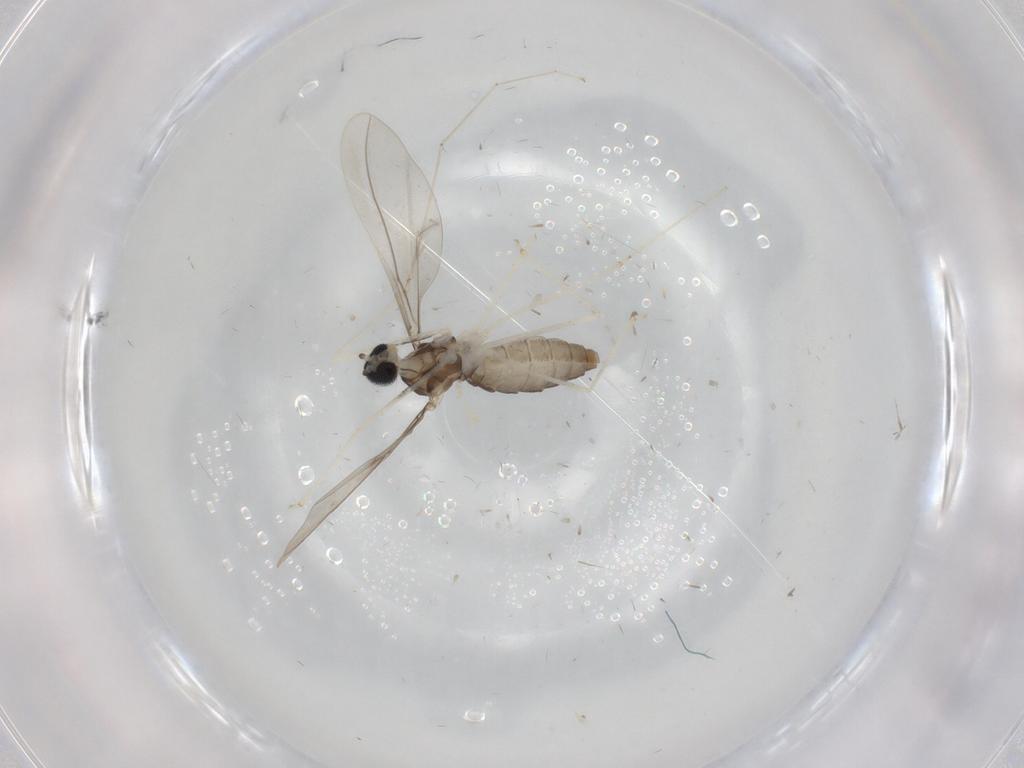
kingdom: Animalia
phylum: Arthropoda
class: Insecta
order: Diptera
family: Cecidomyiidae
